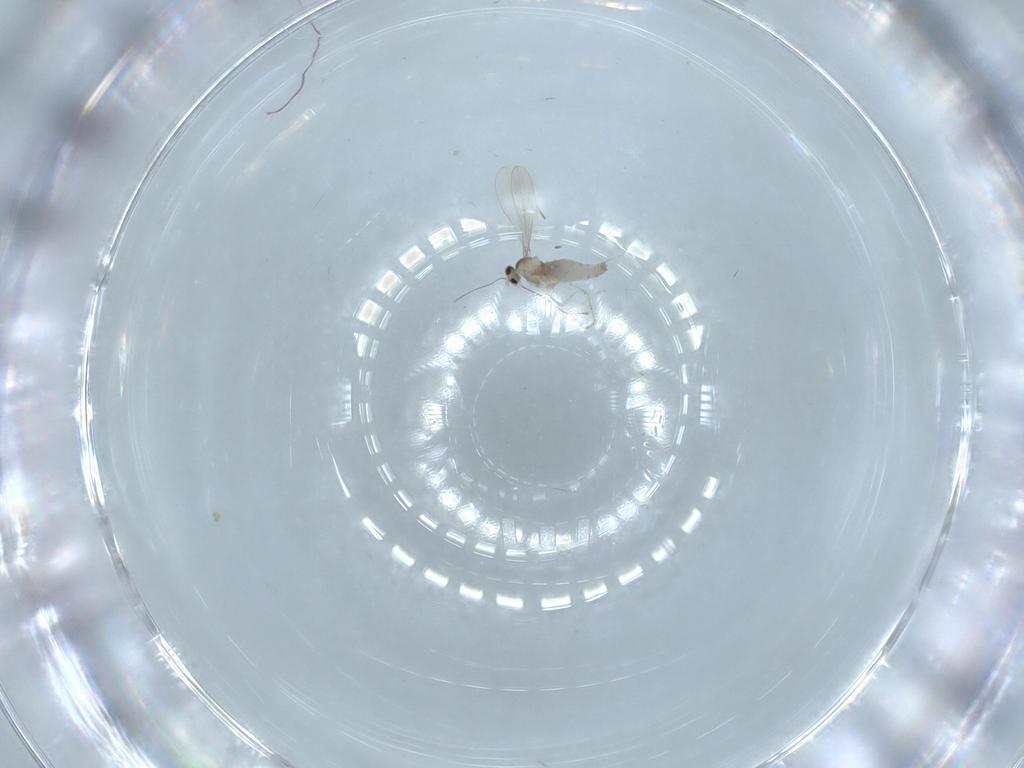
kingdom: Animalia
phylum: Arthropoda
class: Insecta
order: Diptera
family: Cecidomyiidae
